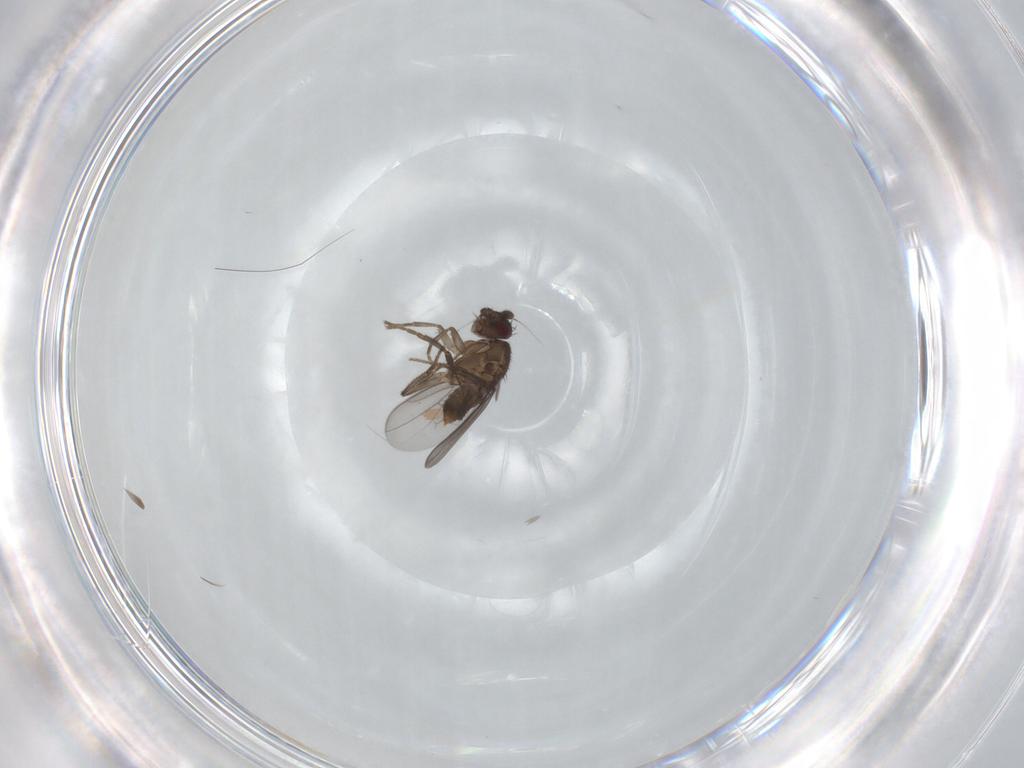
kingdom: Animalia
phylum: Arthropoda
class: Insecta
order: Diptera
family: Sphaeroceridae
